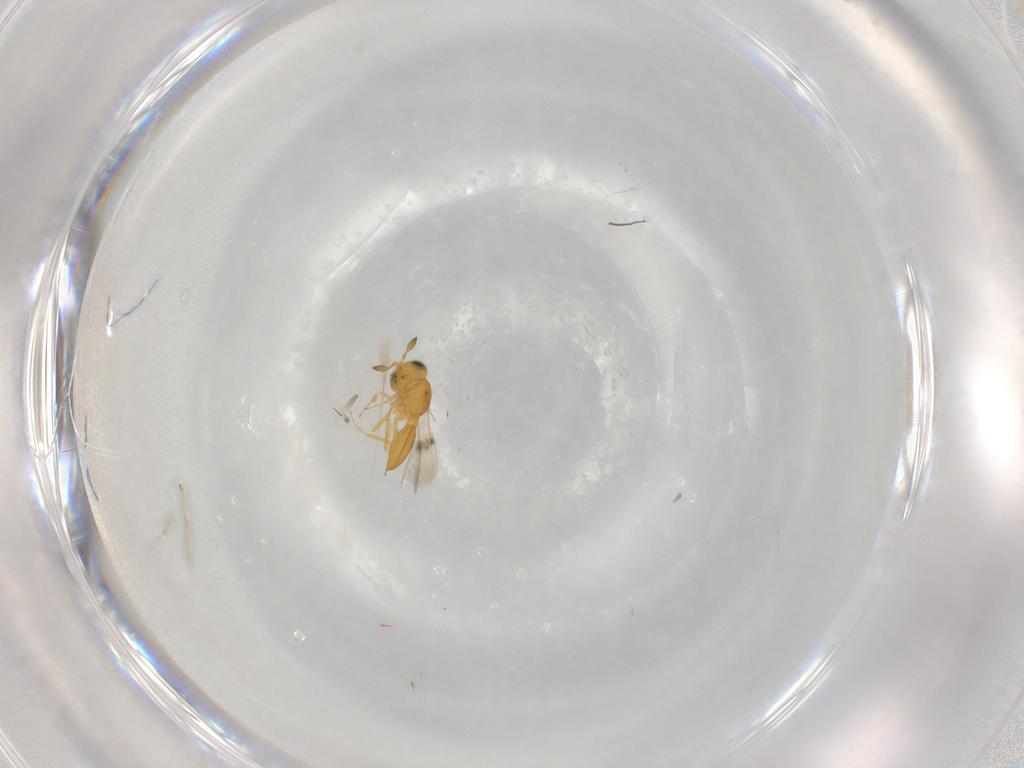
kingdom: Animalia
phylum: Arthropoda
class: Insecta
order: Hymenoptera
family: Scelionidae
